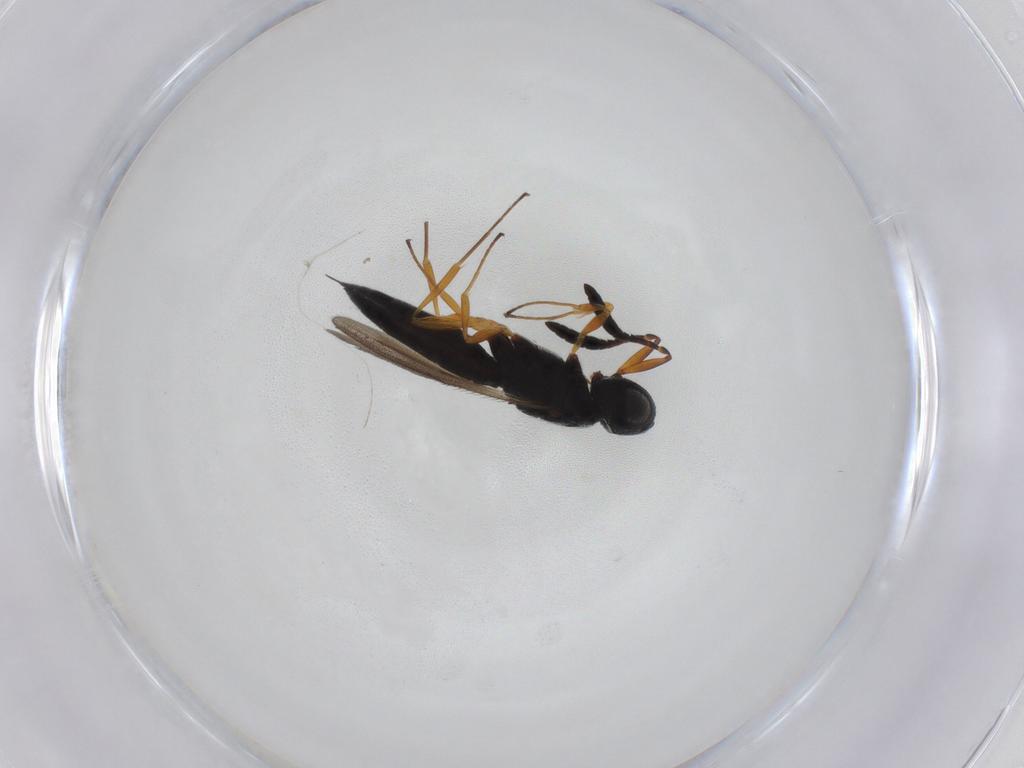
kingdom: Animalia
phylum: Arthropoda
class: Insecta
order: Hymenoptera
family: Scelionidae
